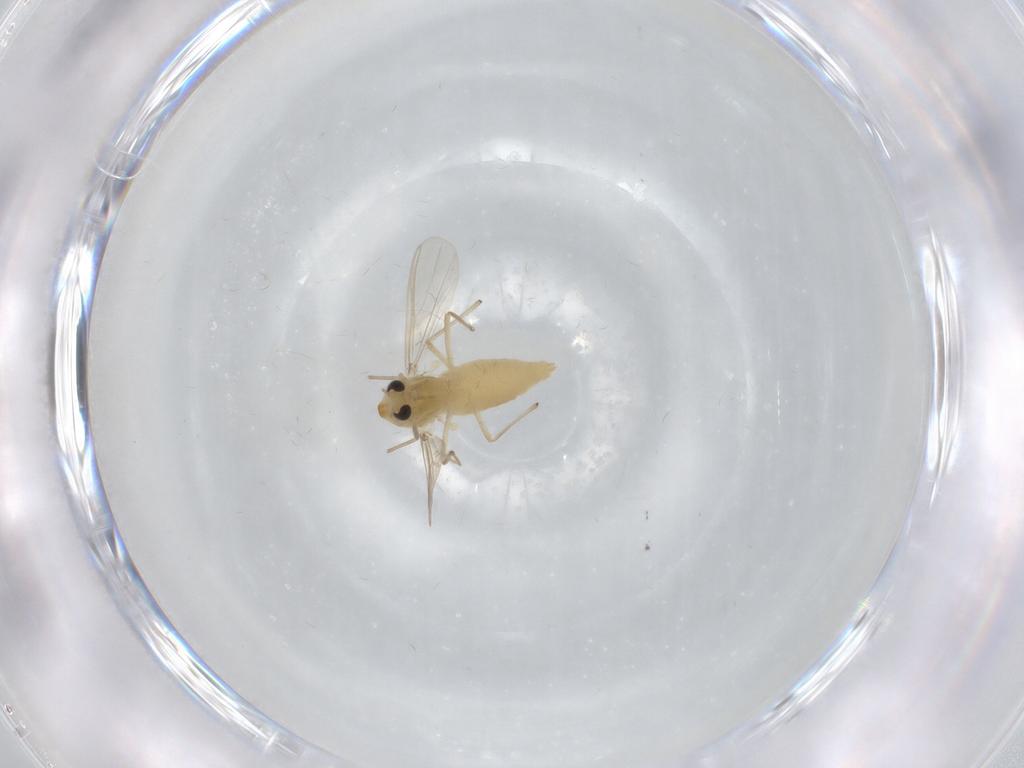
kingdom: Animalia
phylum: Arthropoda
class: Insecta
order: Diptera
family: Chironomidae
